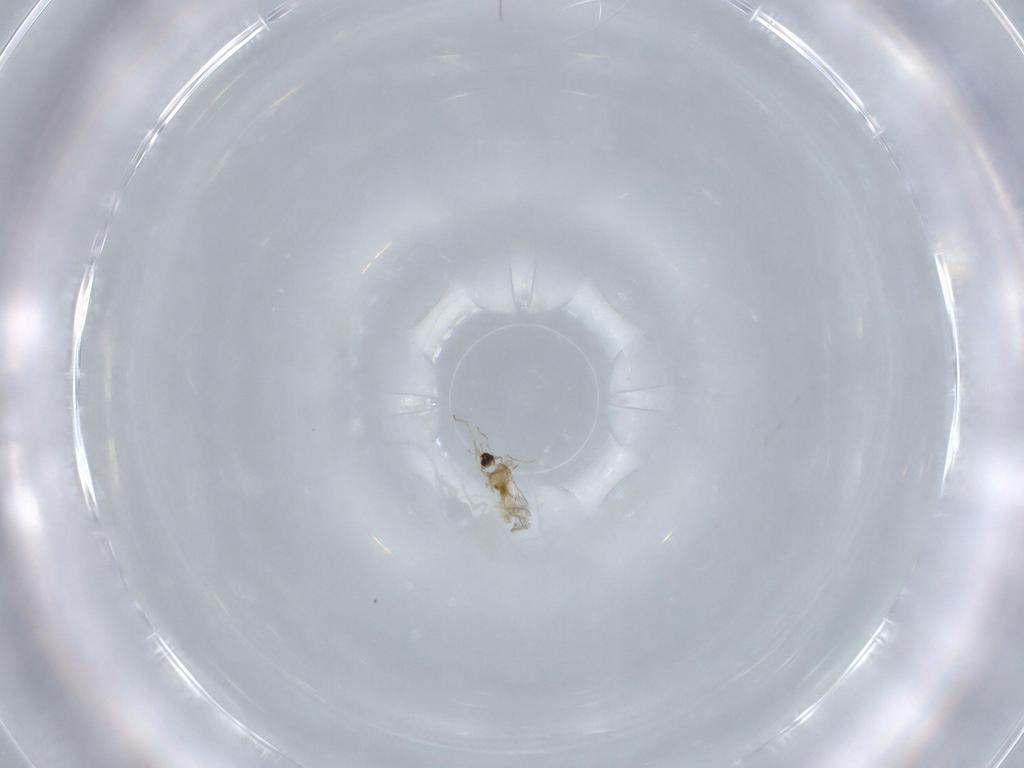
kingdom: Animalia
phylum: Arthropoda
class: Insecta
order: Diptera
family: Cecidomyiidae
